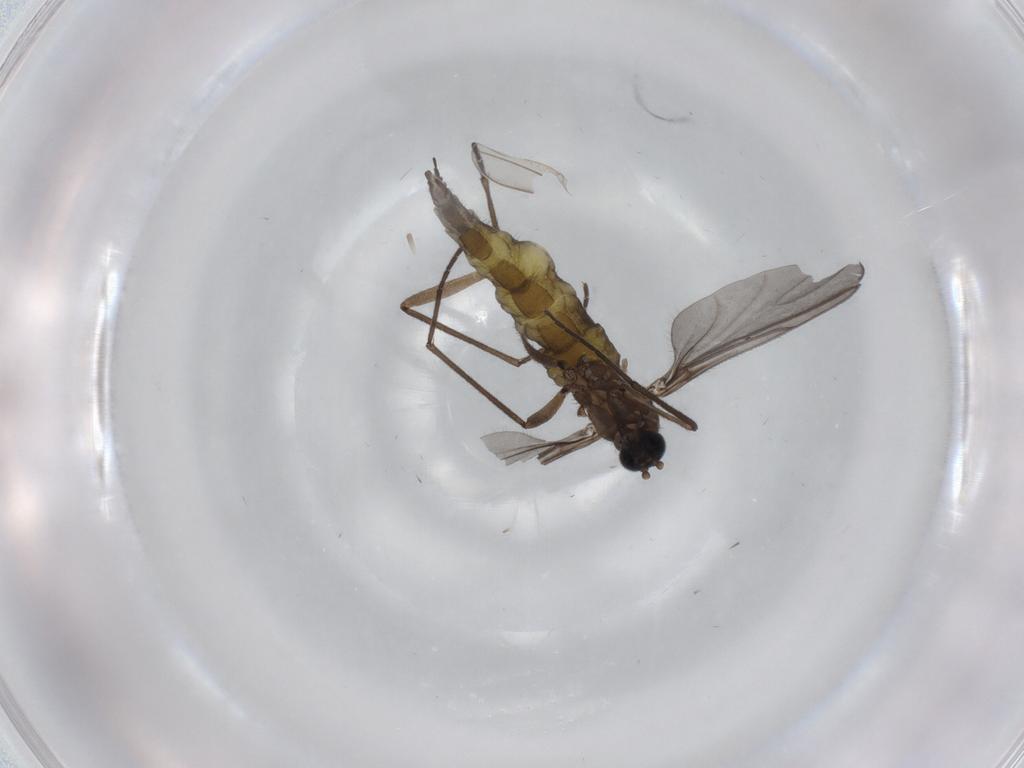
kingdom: Animalia
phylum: Arthropoda
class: Insecta
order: Diptera
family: Sciaridae
